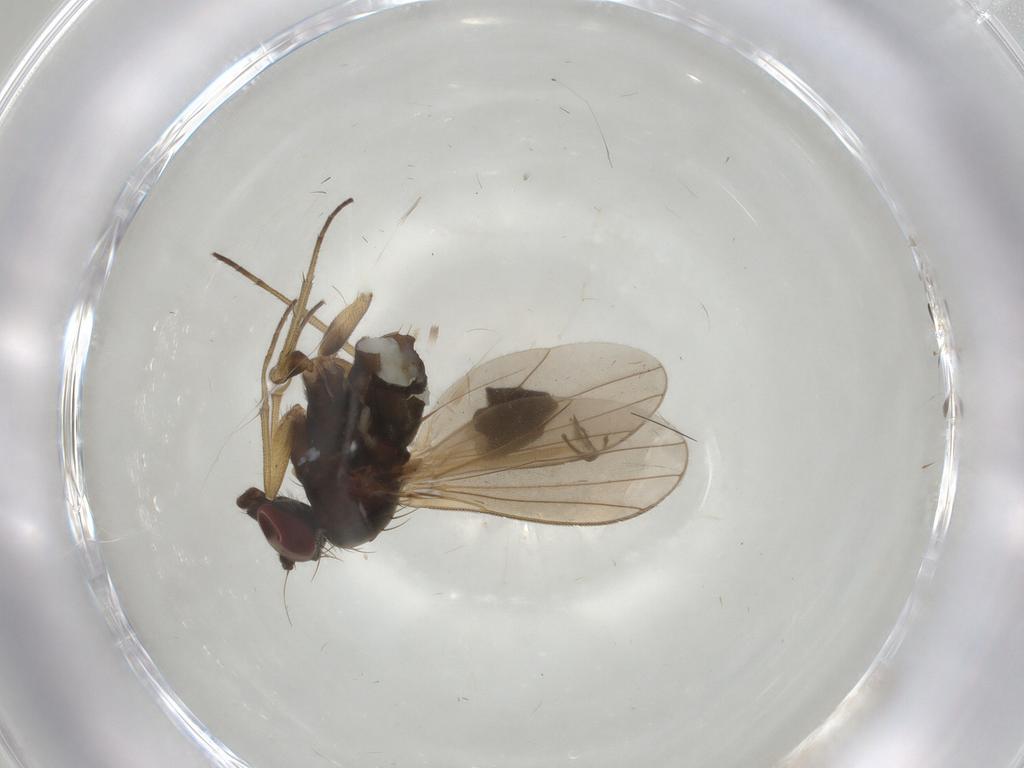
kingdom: Animalia
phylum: Arthropoda
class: Insecta
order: Diptera
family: Dolichopodidae
